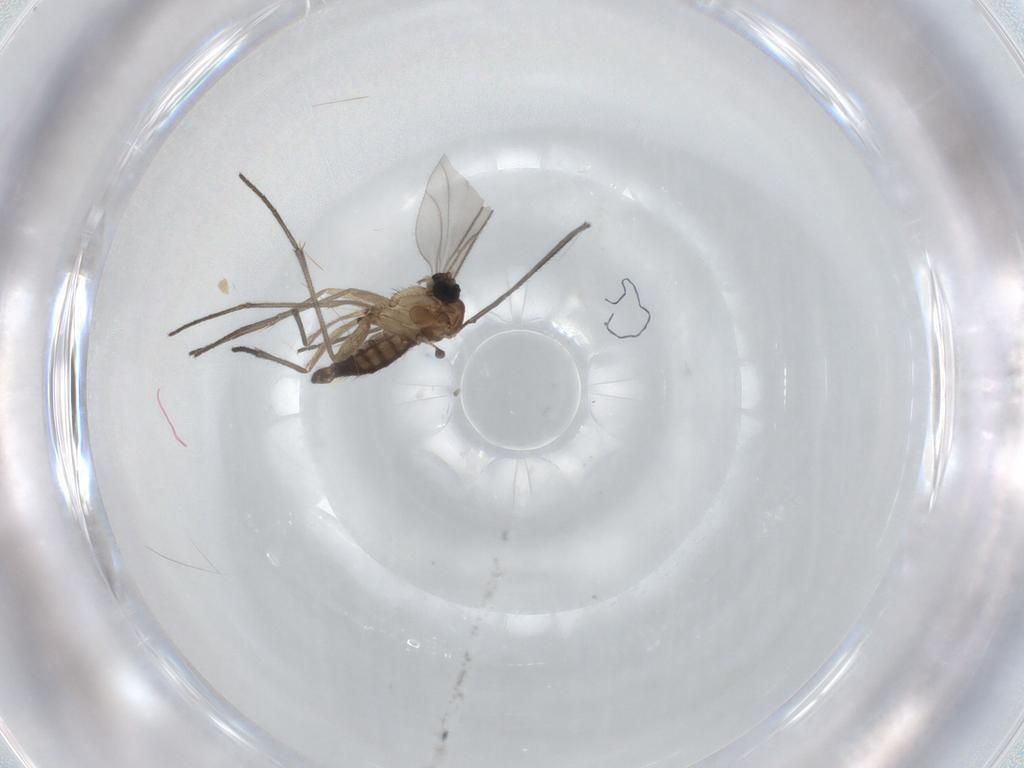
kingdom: Animalia
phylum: Arthropoda
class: Insecta
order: Diptera
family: Sciaridae
